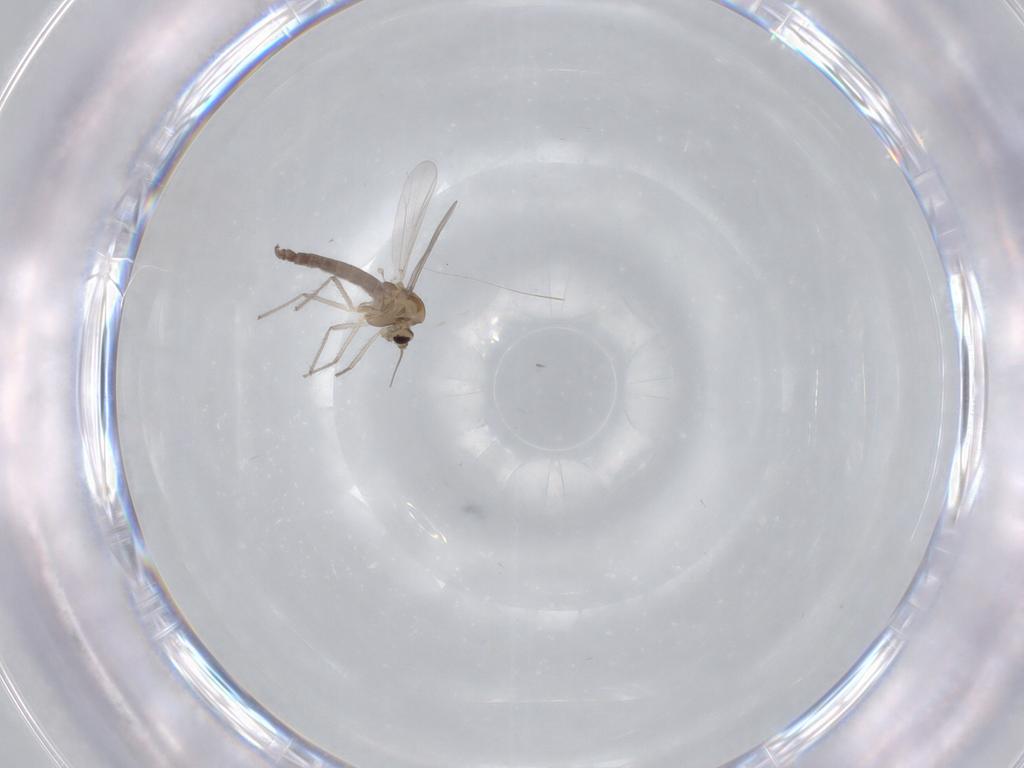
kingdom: Animalia
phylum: Arthropoda
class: Insecta
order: Diptera
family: Chironomidae
